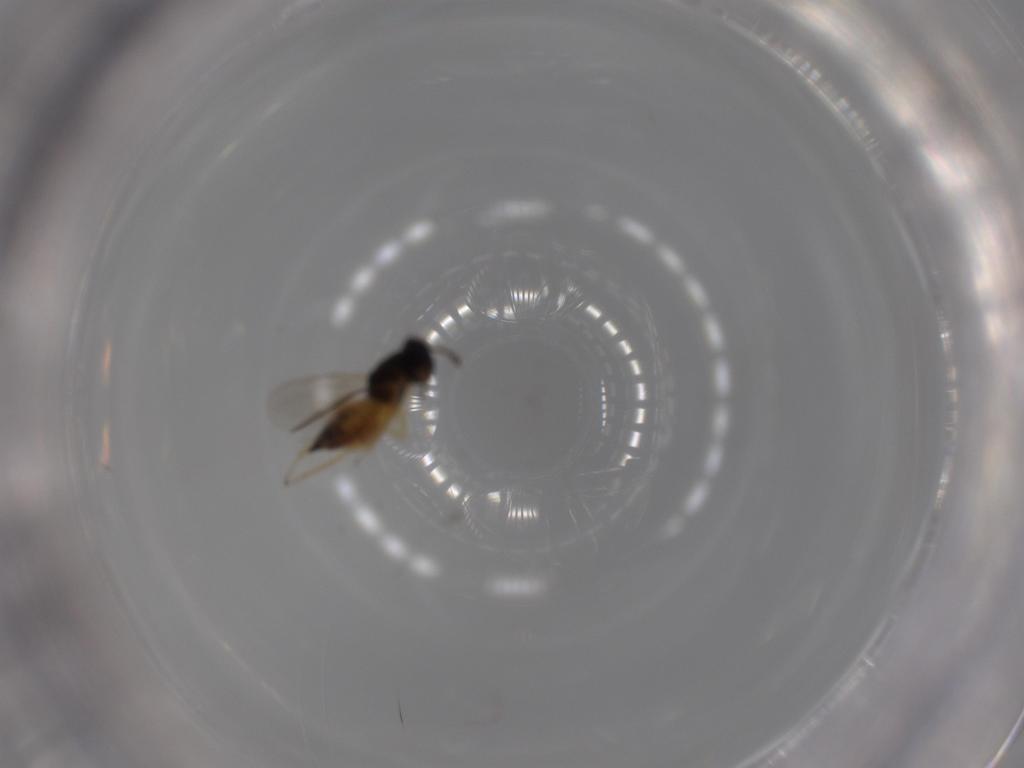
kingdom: Animalia
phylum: Arthropoda
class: Insecta
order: Hymenoptera
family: Eulophidae
